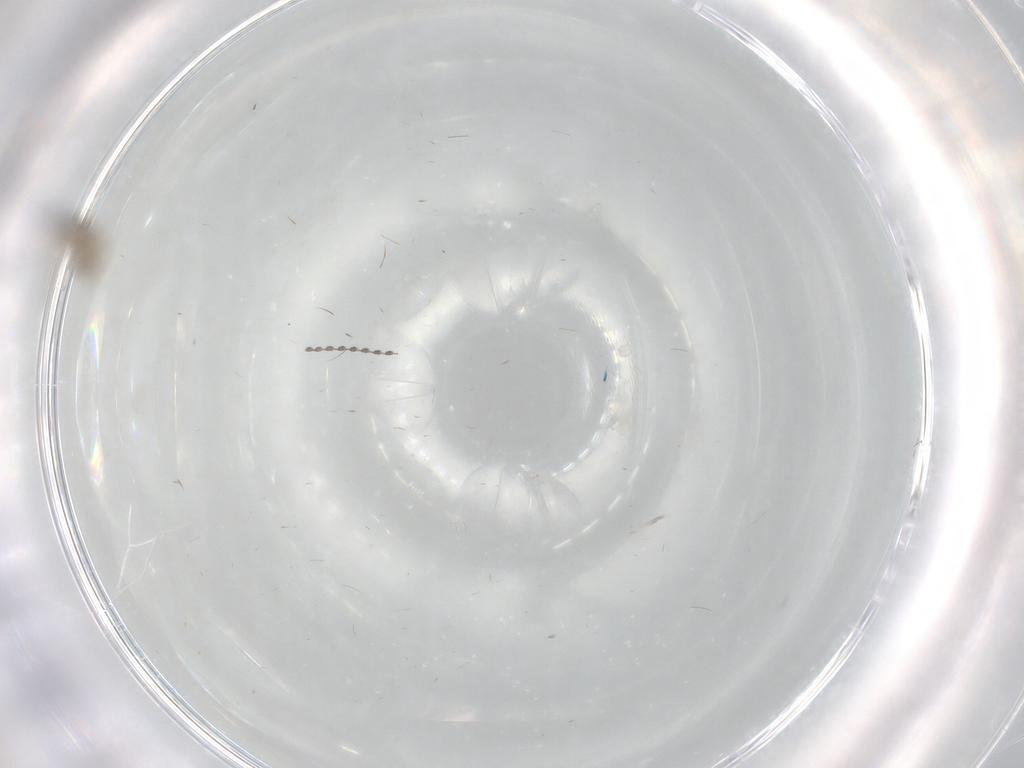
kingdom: Animalia
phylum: Arthropoda
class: Insecta
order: Diptera
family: Cecidomyiidae
